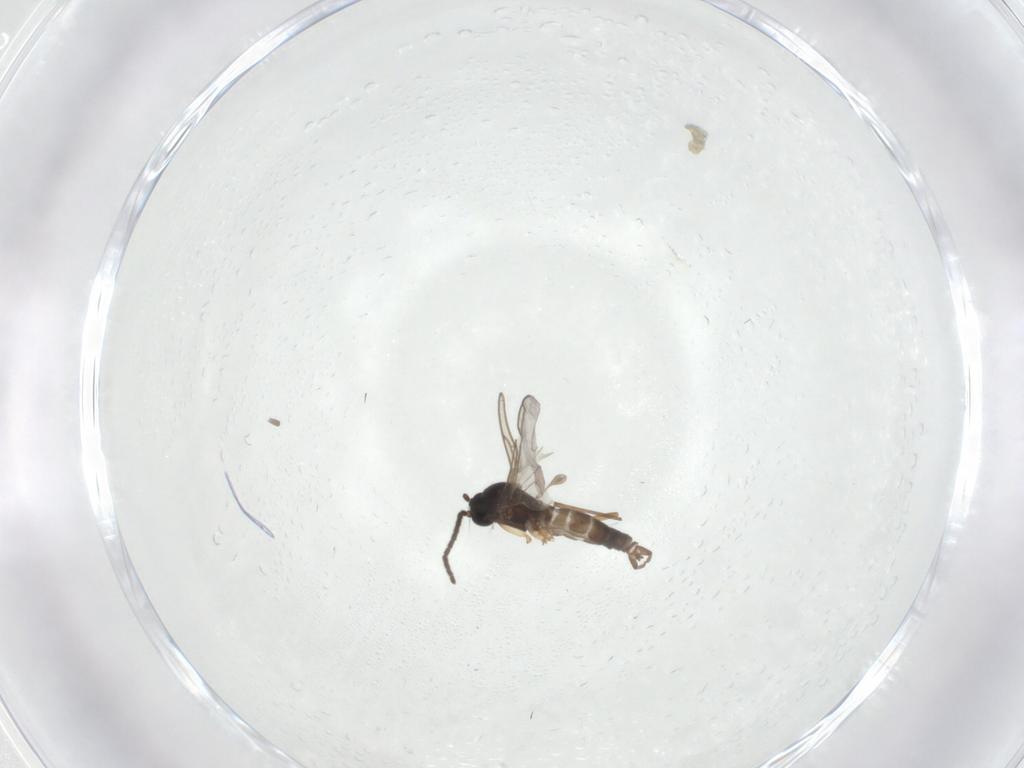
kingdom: Animalia
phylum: Arthropoda
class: Insecta
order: Diptera
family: Sciaridae
